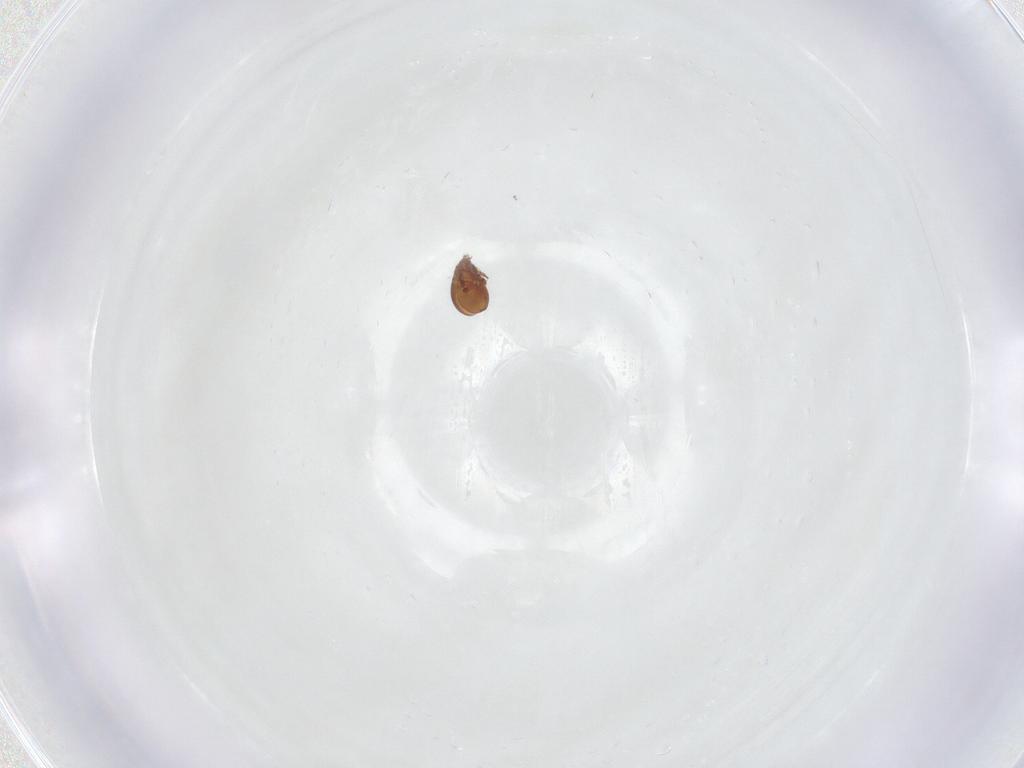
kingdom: Animalia
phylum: Arthropoda
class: Arachnida
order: Sarcoptiformes
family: Scheloribatidae
